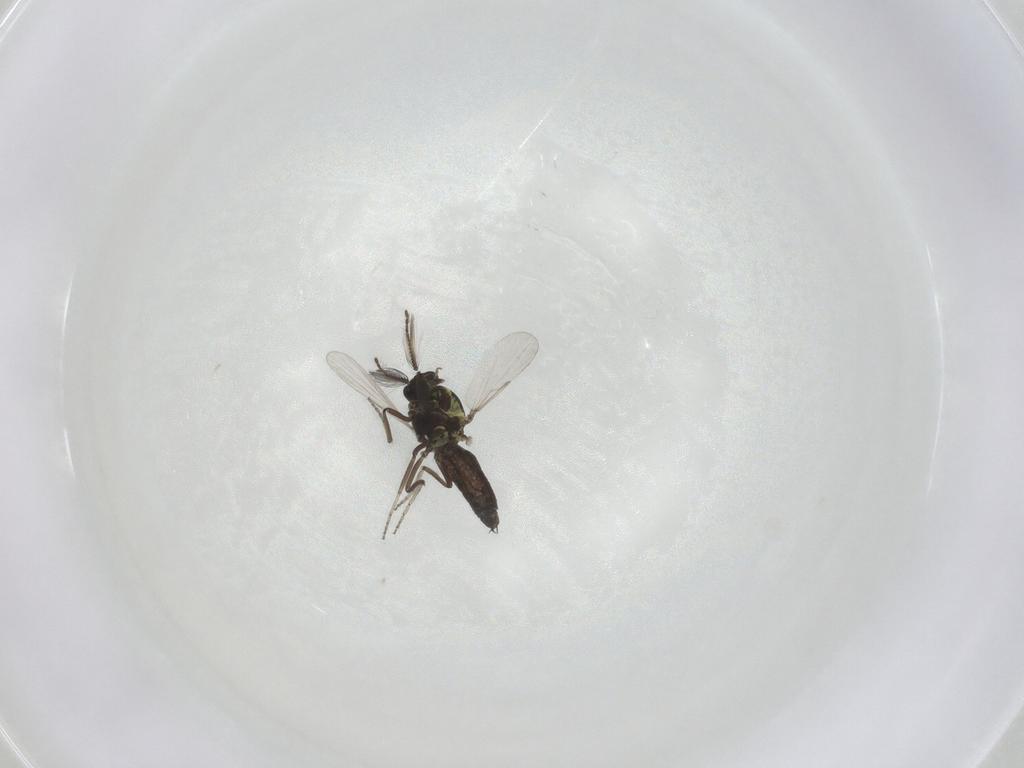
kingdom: Animalia
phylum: Arthropoda
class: Insecta
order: Diptera
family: Ceratopogonidae
